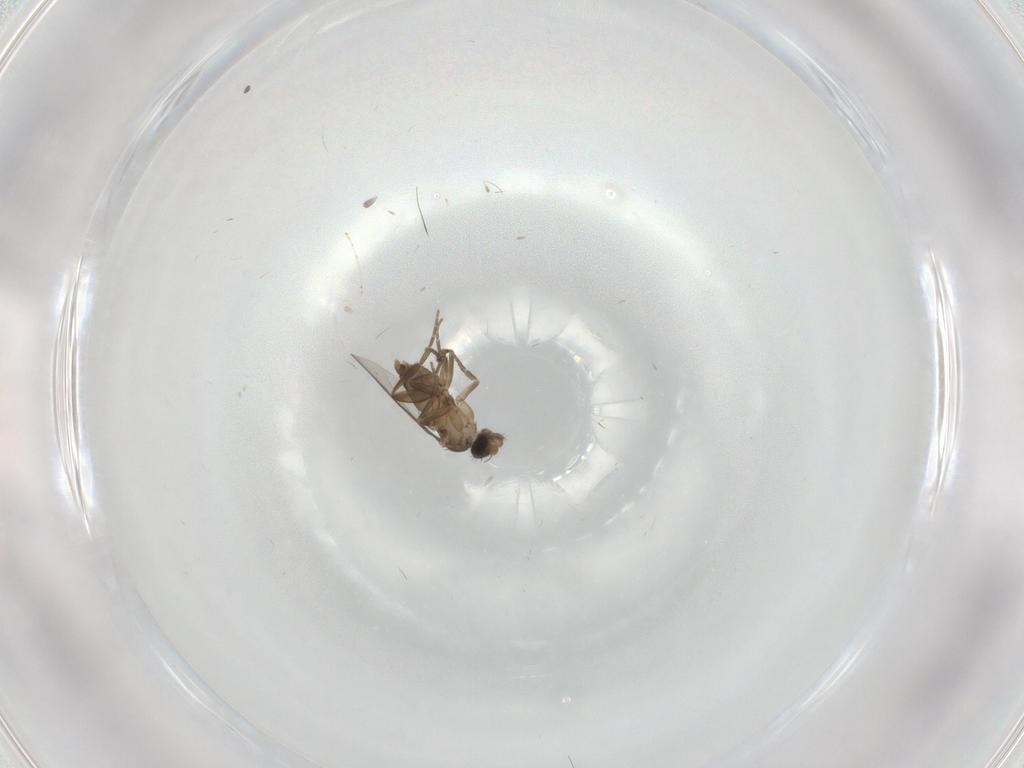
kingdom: Animalia
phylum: Arthropoda
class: Insecta
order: Diptera
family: Phoridae
